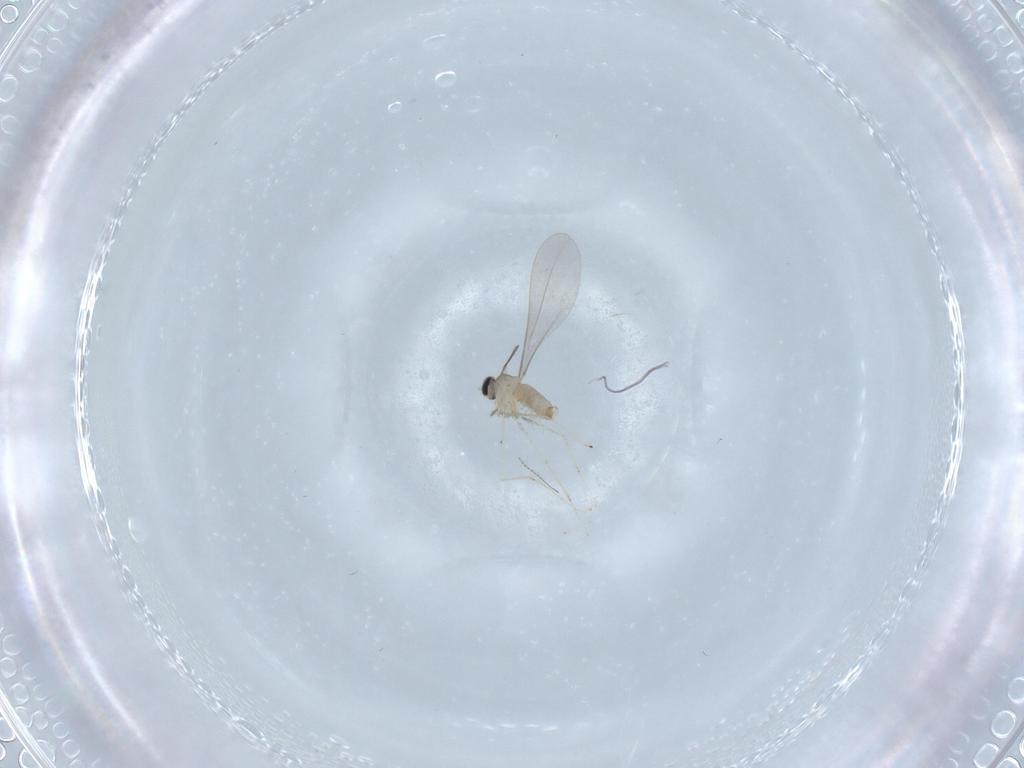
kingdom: Animalia
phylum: Arthropoda
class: Insecta
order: Diptera
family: Cecidomyiidae
